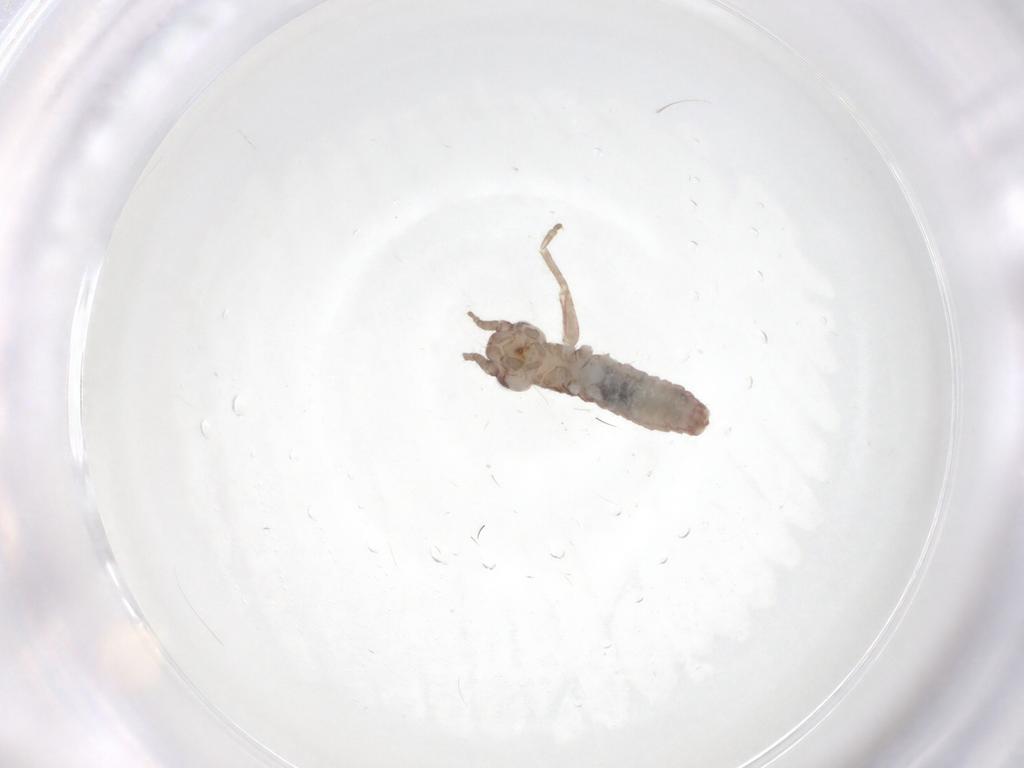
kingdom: Animalia
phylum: Arthropoda
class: Insecta
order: Orthoptera
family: Mogoplistidae
